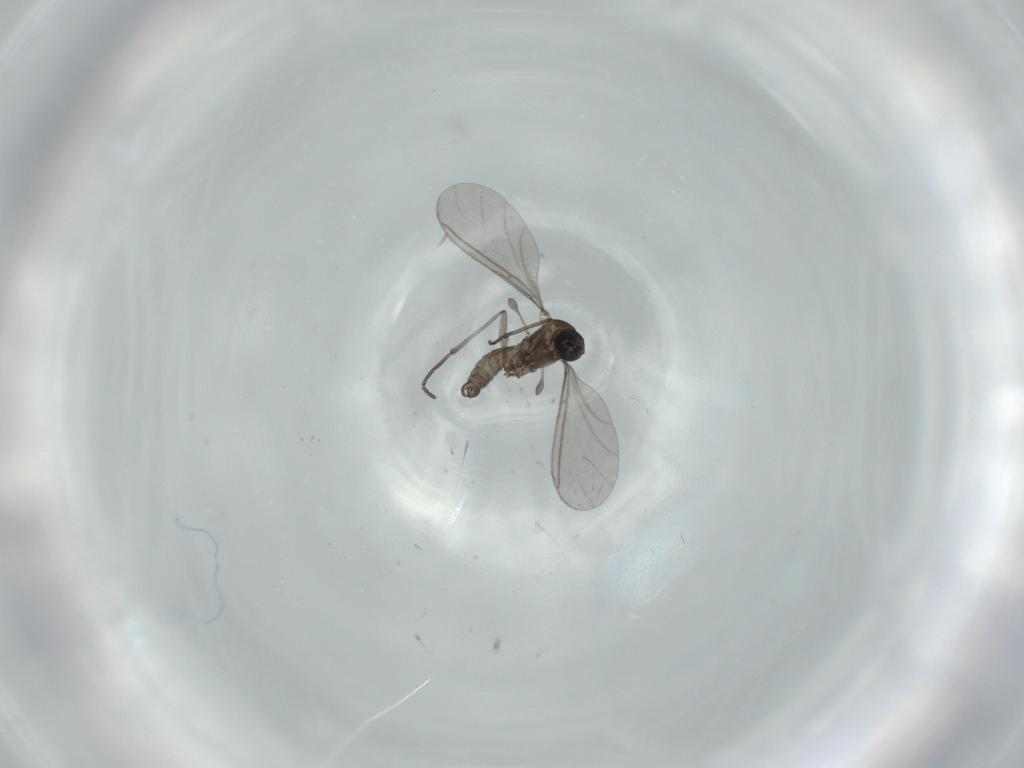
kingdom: Animalia
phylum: Arthropoda
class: Insecta
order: Diptera
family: Sciaridae
